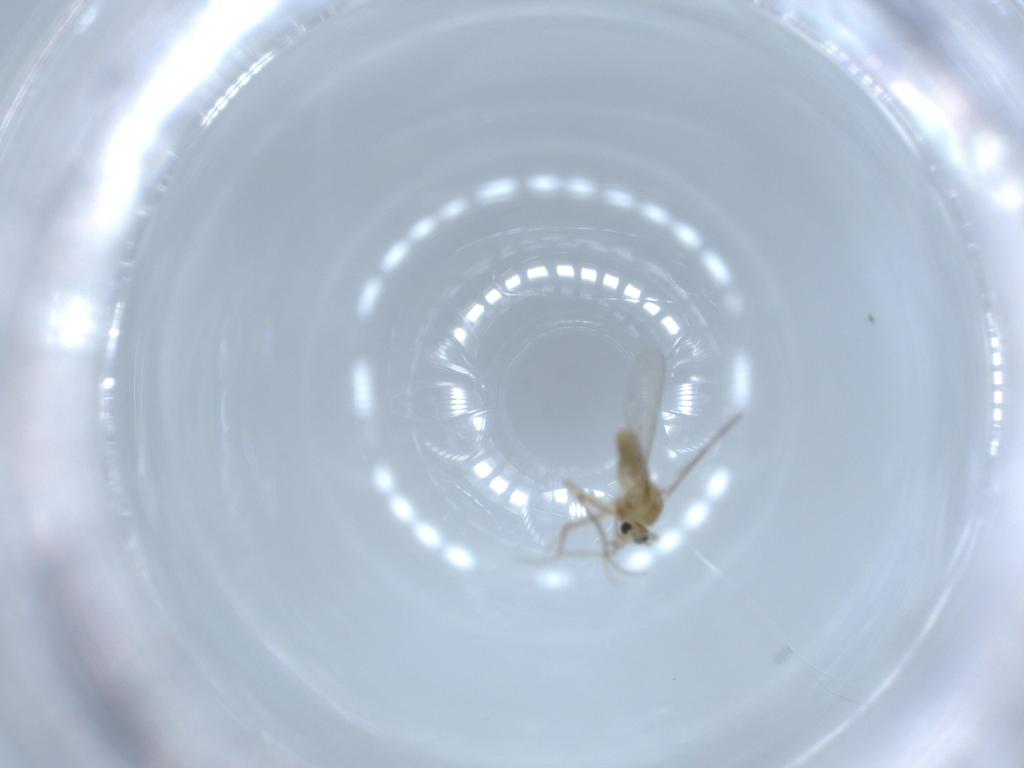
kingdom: Animalia
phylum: Arthropoda
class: Insecta
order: Diptera
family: Chironomidae
